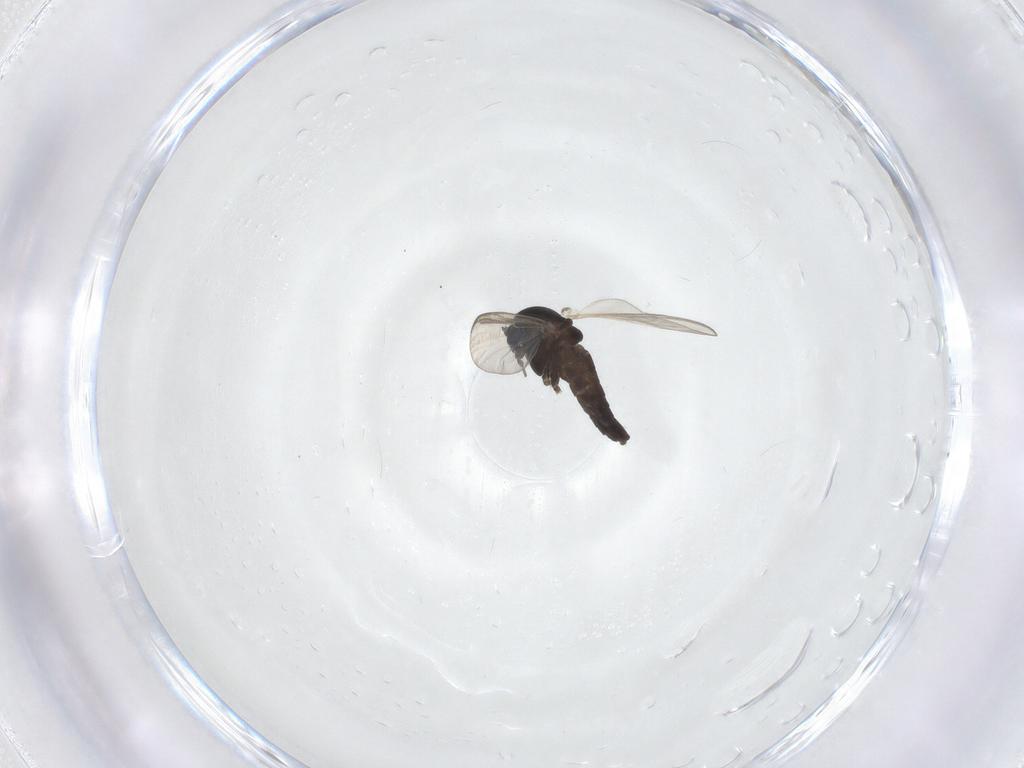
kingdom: Animalia
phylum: Arthropoda
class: Insecta
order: Diptera
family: Chironomidae
